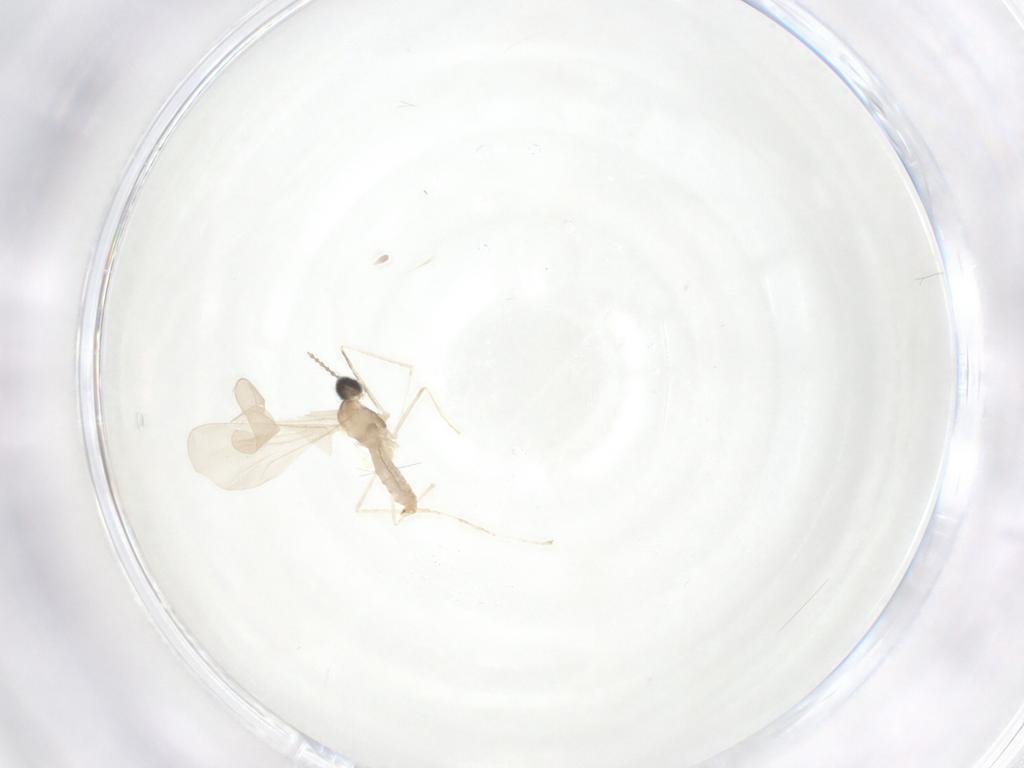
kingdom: Animalia
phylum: Arthropoda
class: Insecta
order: Diptera
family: Cecidomyiidae
